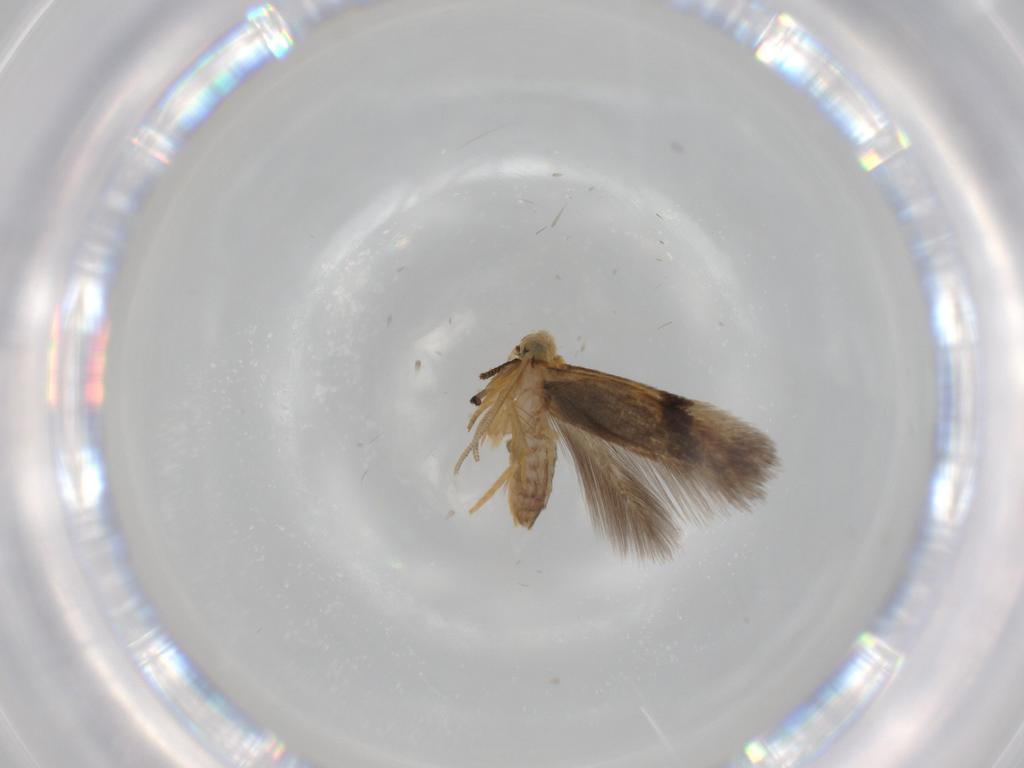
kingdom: Animalia
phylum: Arthropoda
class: Insecta
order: Lepidoptera
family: Nepticulidae
